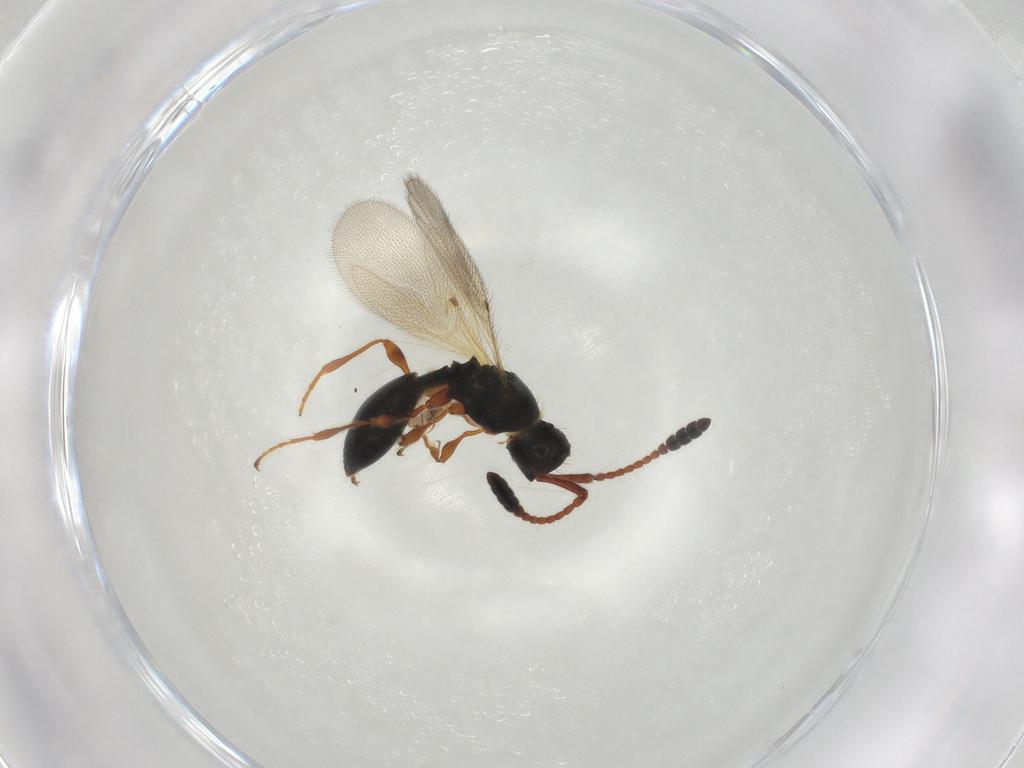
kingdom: Animalia
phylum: Arthropoda
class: Insecta
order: Hymenoptera
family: Diapriidae
